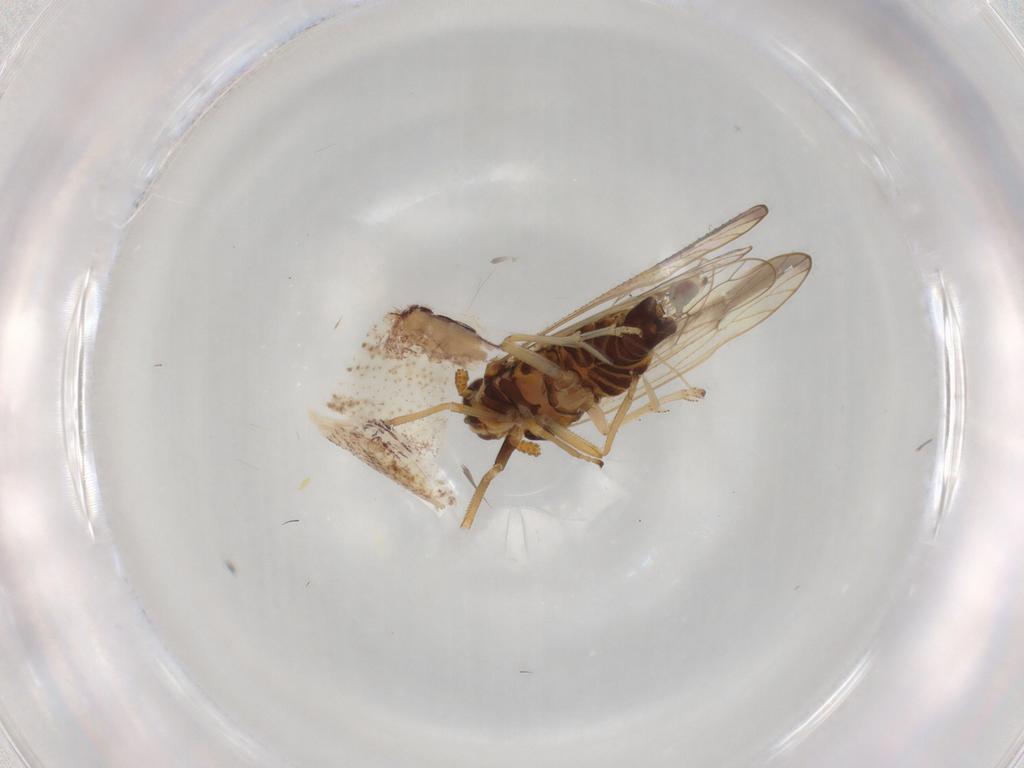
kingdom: Animalia
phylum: Arthropoda
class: Insecta
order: Hemiptera
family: Delphacidae
